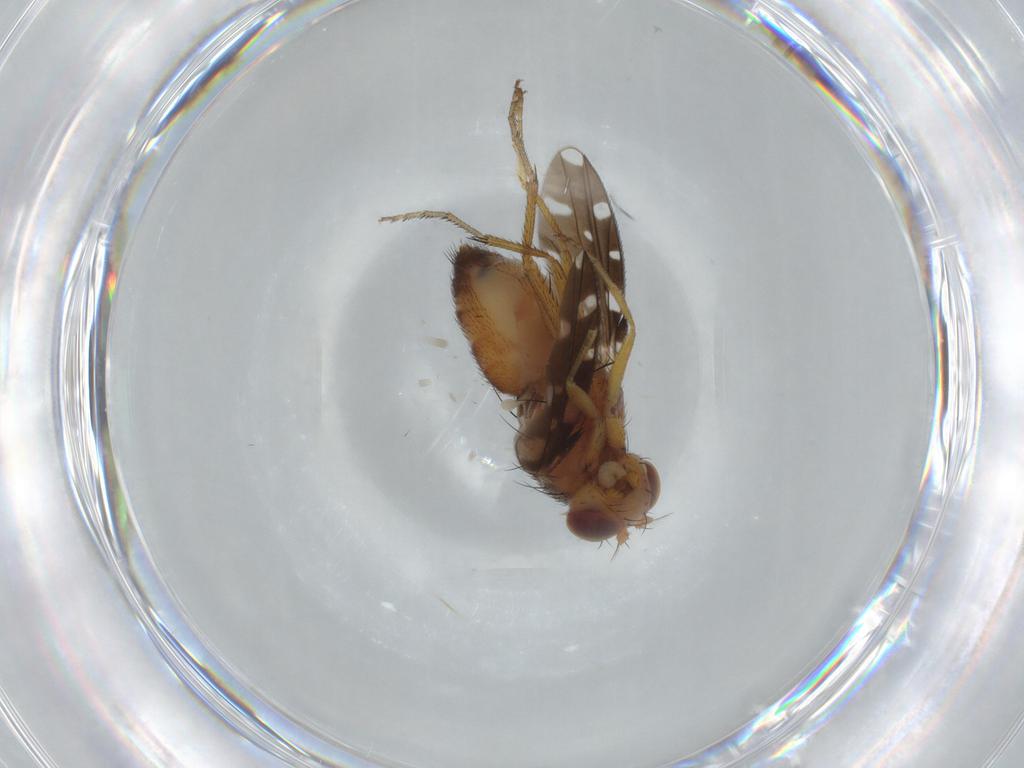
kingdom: Animalia
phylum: Arthropoda
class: Insecta
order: Diptera
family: Ephydridae
